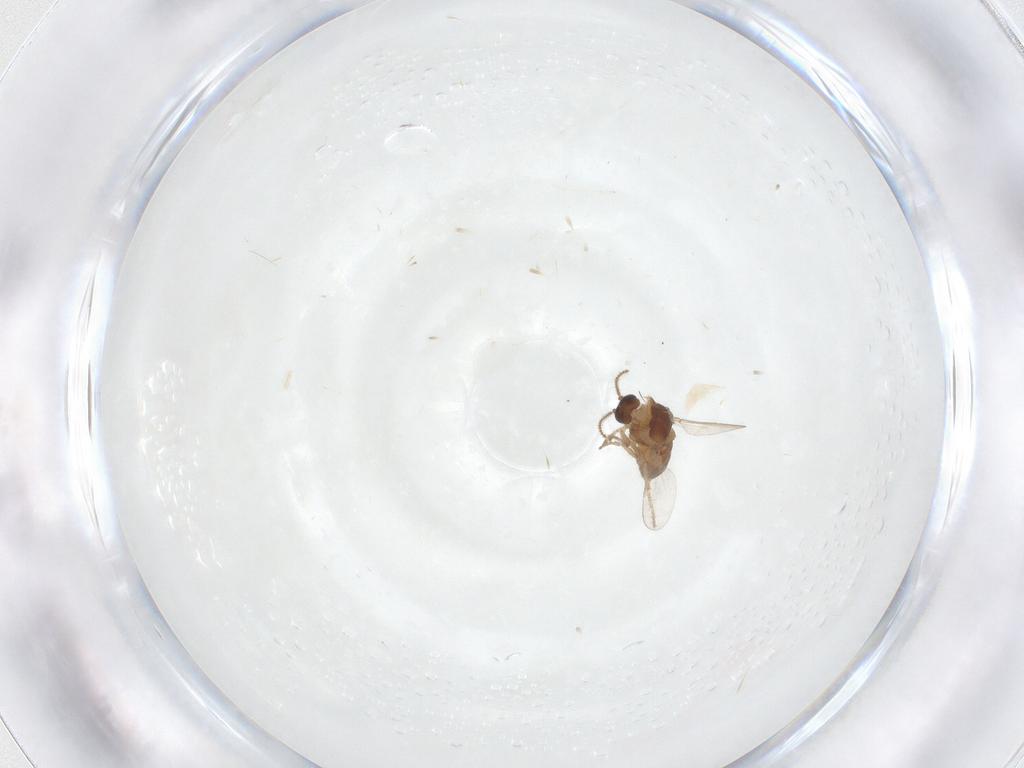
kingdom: Animalia
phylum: Arthropoda
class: Insecta
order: Diptera
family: Ceratopogonidae
